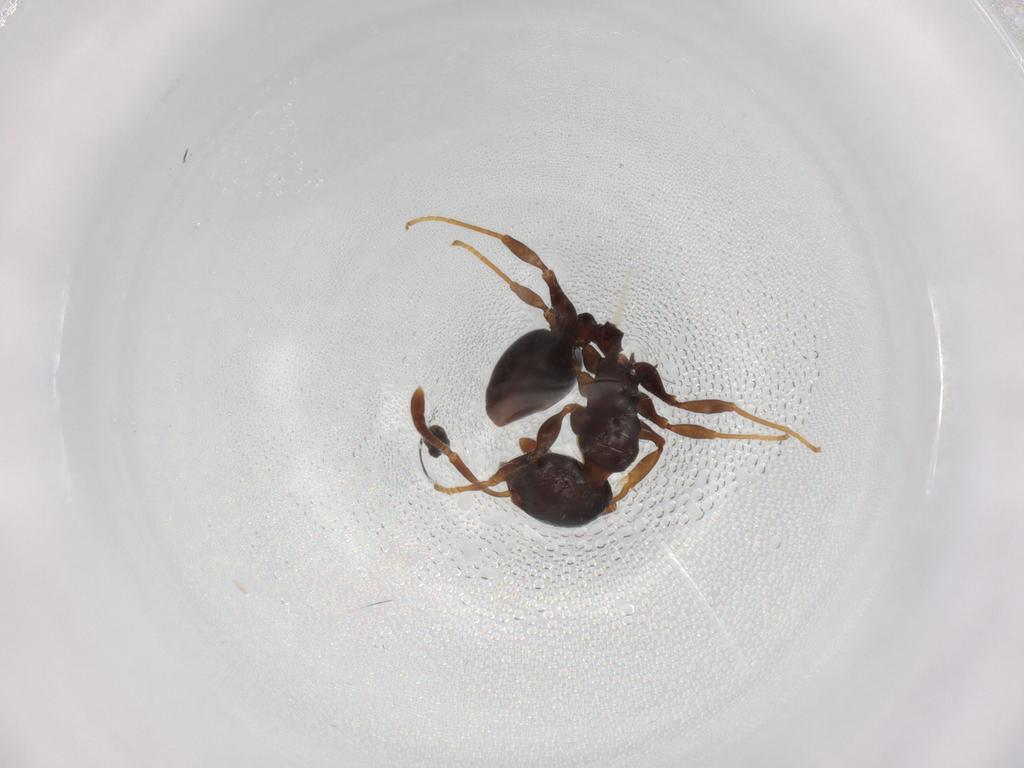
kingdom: Animalia
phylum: Arthropoda
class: Insecta
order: Hymenoptera
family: Formicidae
